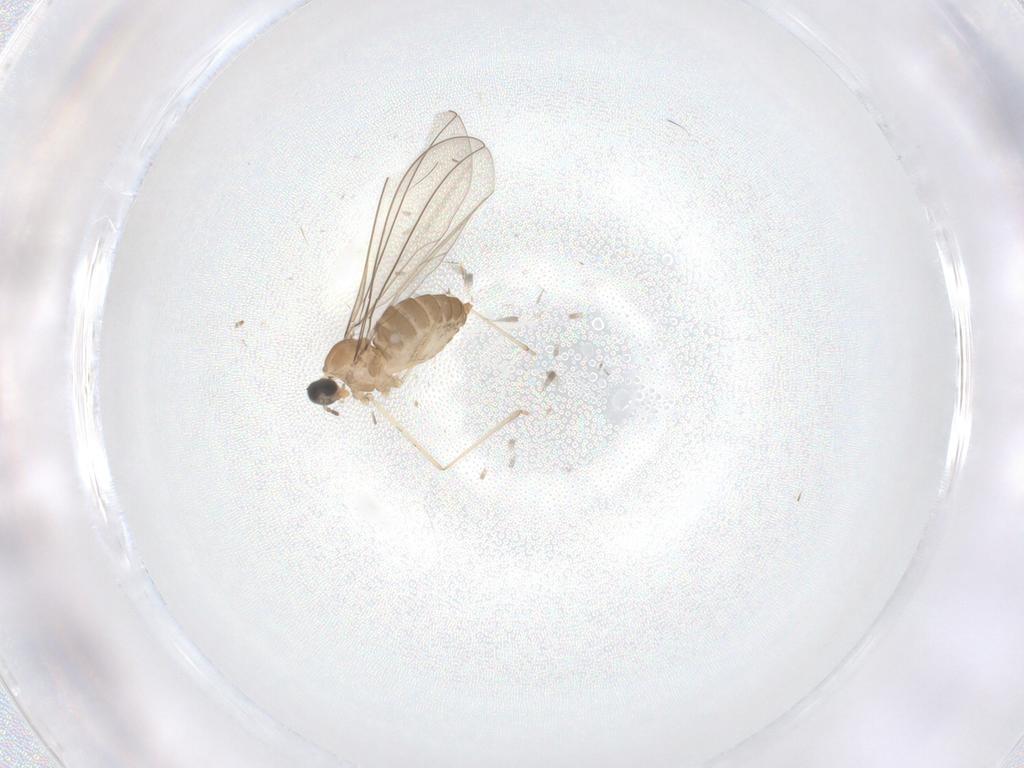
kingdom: Animalia
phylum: Arthropoda
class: Insecta
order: Diptera
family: Cecidomyiidae
